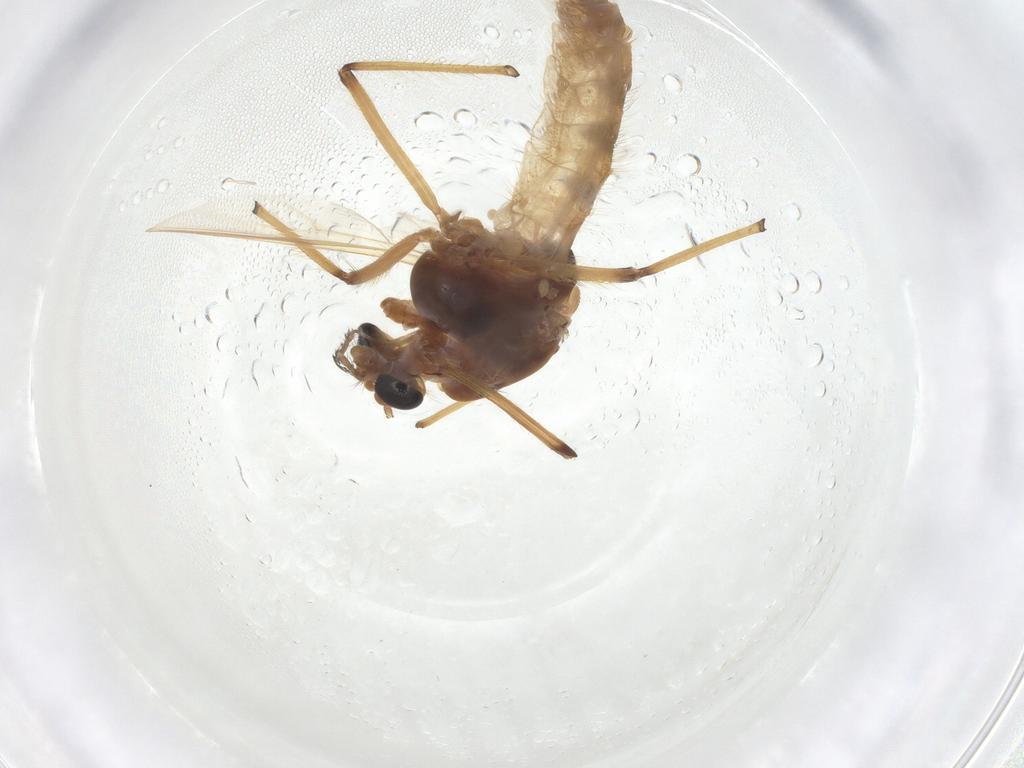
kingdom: Animalia
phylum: Arthropoda
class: Insecta
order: Diptera
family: Chironomidae
